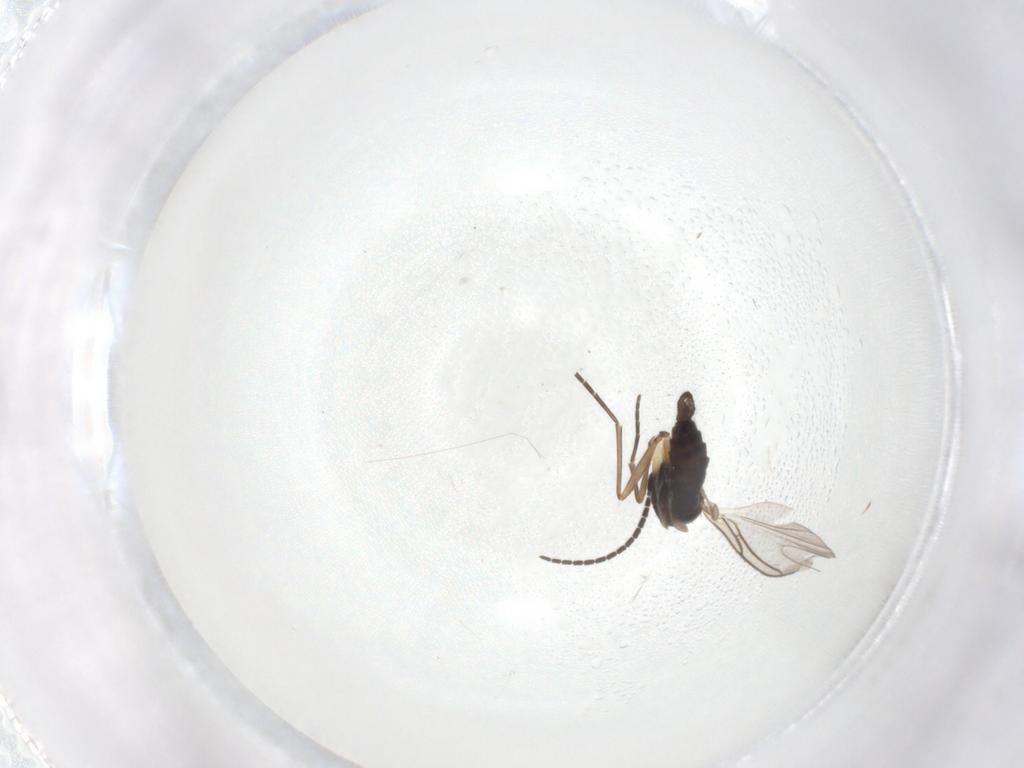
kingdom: Animalia
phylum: Arthropoda
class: Insecta
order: Diptera
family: Sciaridae
